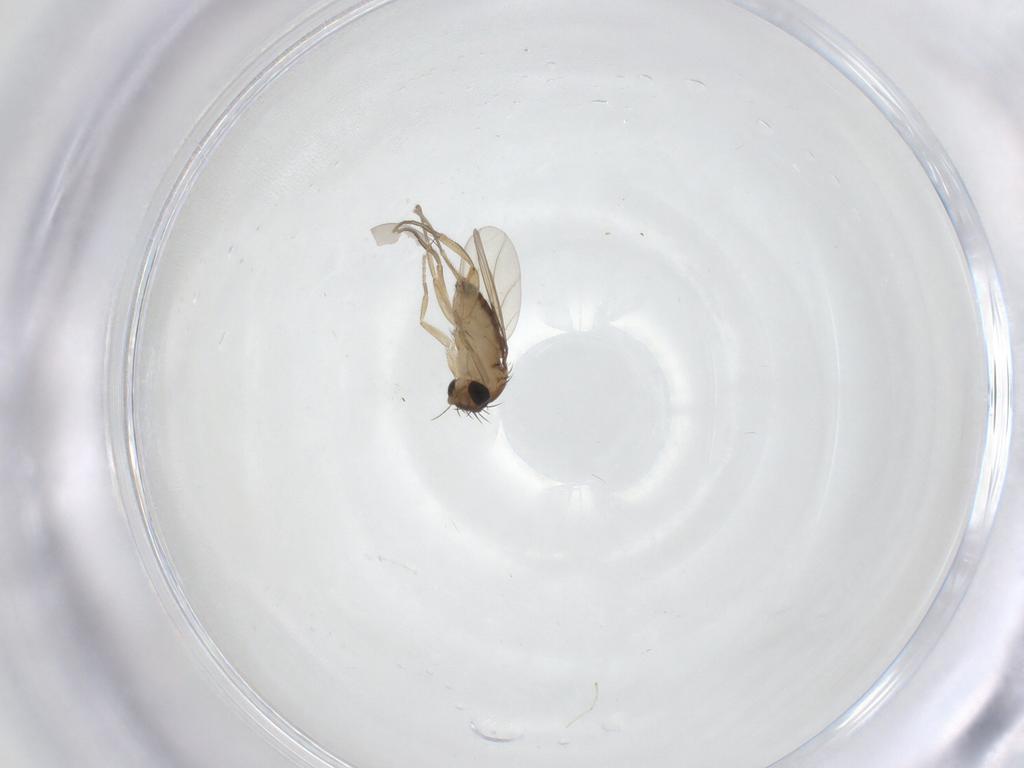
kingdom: Animalia
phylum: Arthropoda
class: Insecta
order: Diptera
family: Phoridae
